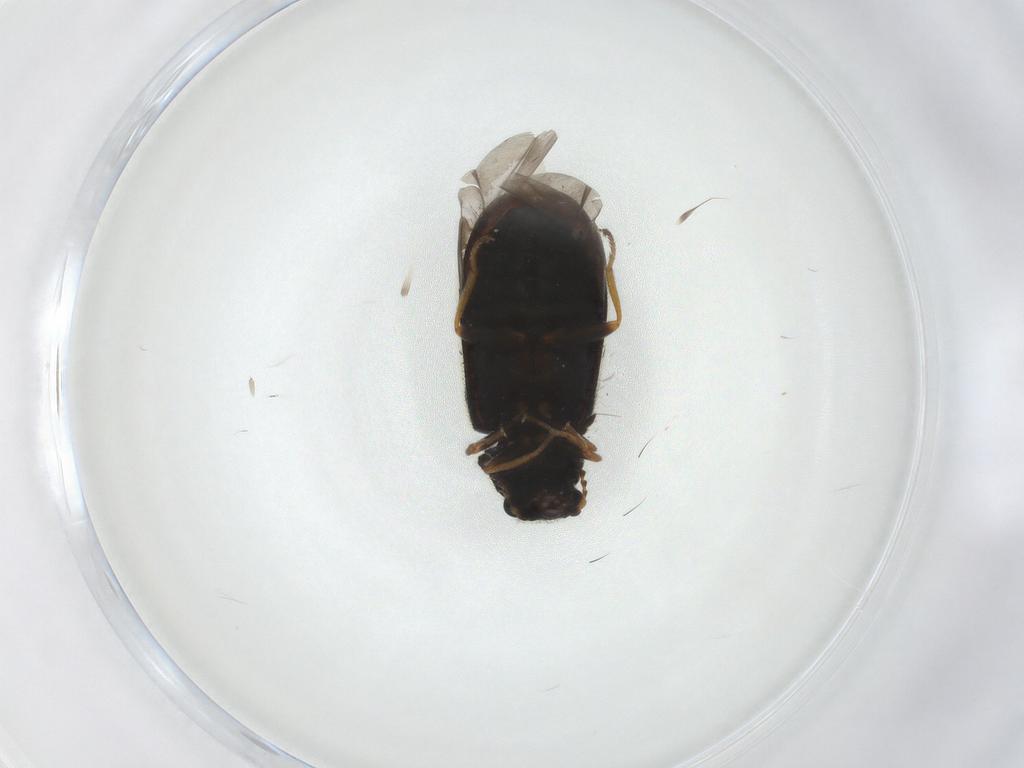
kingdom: Animalia
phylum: Arthropoda
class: Insecta
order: Coleoptera
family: Melyridae
